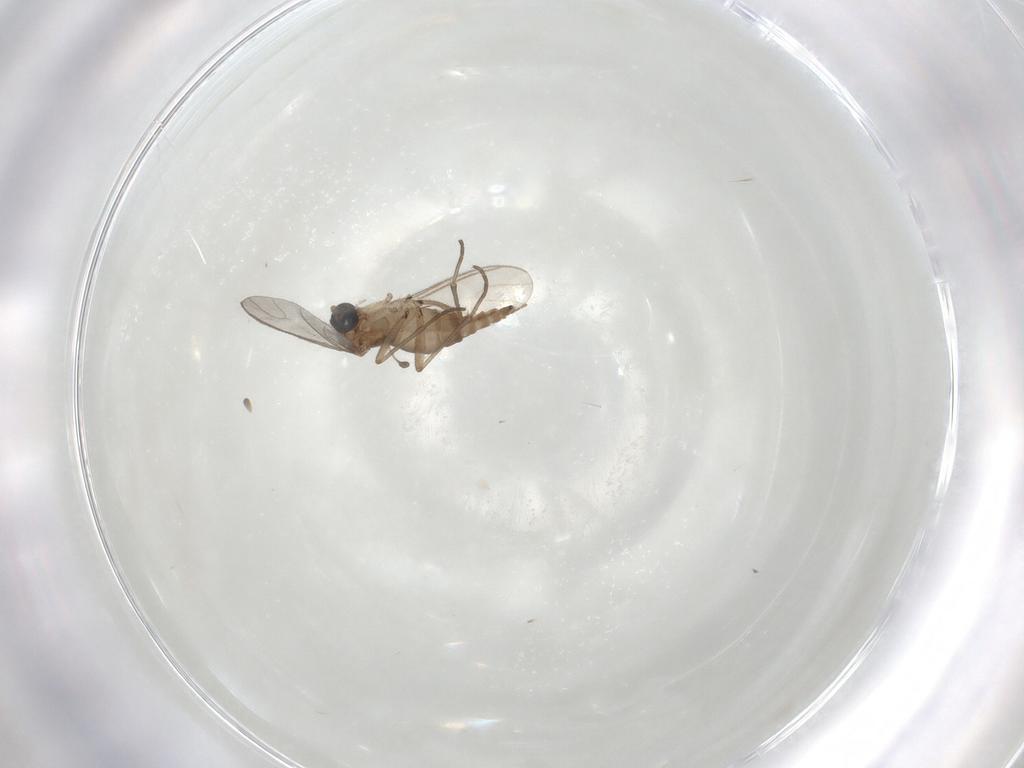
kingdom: Animalia
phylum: Arthropoda
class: Insecta
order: Diptera
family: Sciaridae
